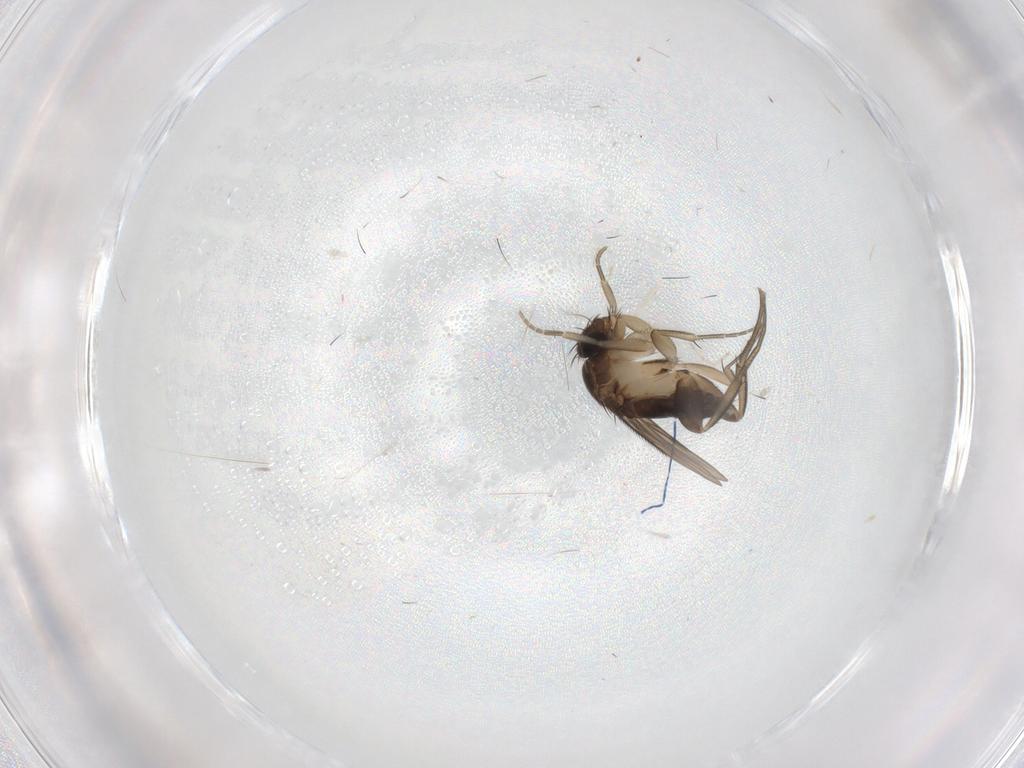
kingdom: Animalia
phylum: Arthropoda
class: Insecta
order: Diptera
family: Phoridae
